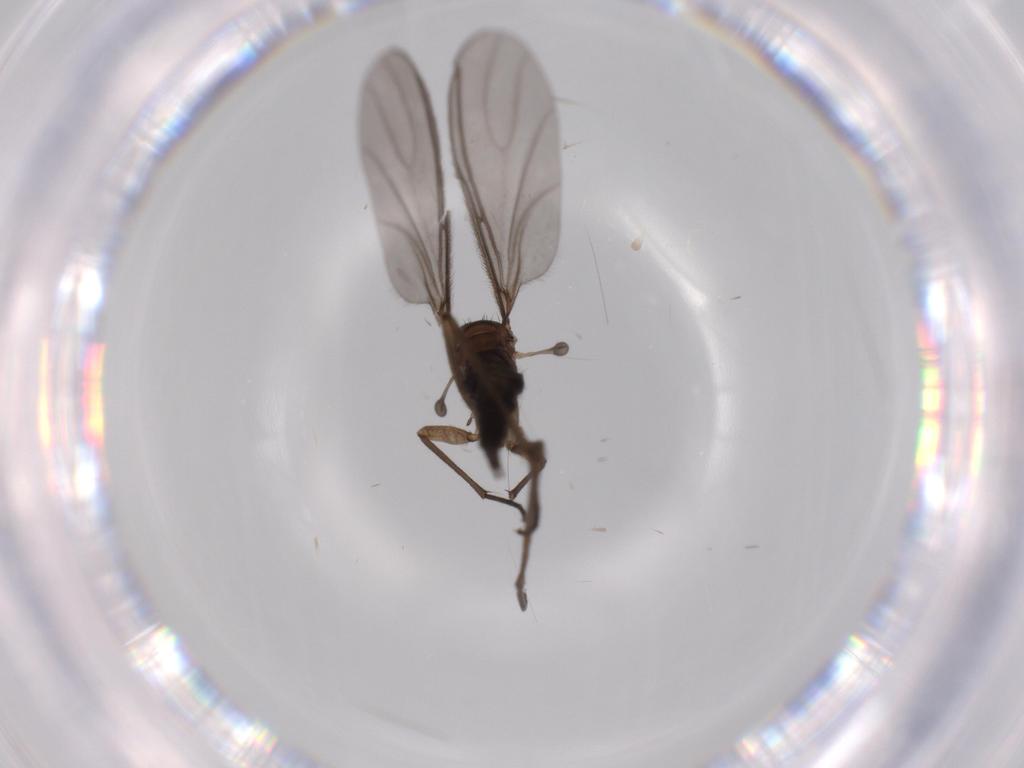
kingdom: Animalia
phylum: Arthropoda
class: Insecta
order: Diptera
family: Sciaridae
